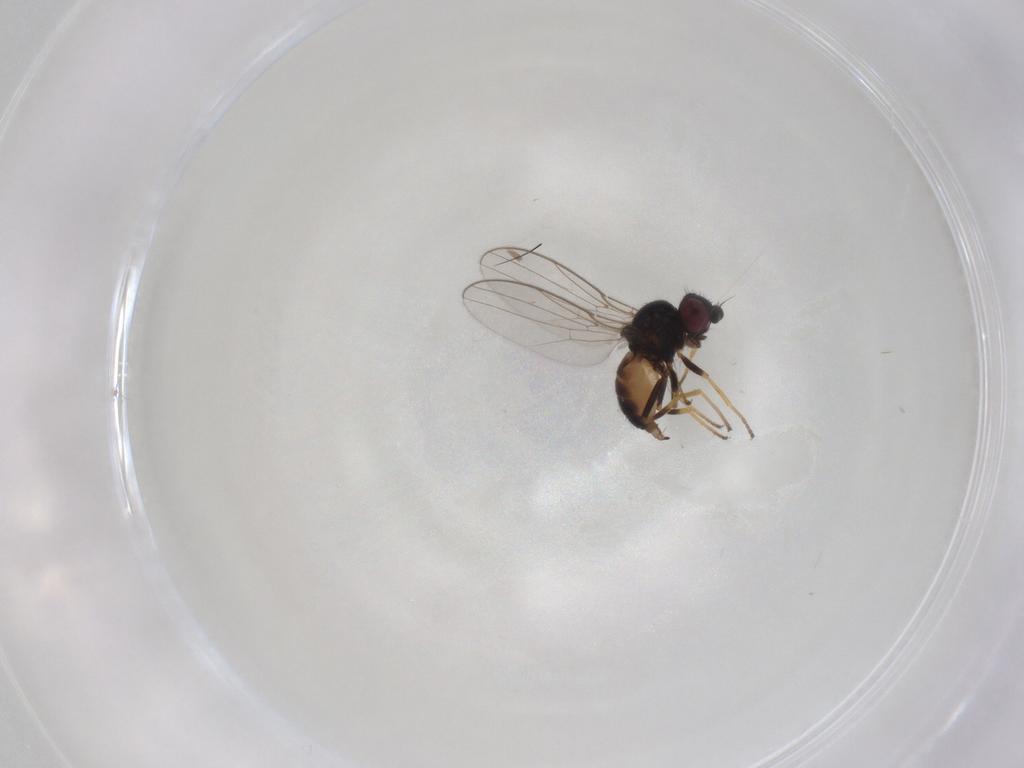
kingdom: Animalia
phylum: Arthropoda
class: Insecta
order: Diptera
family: Chloropidae
